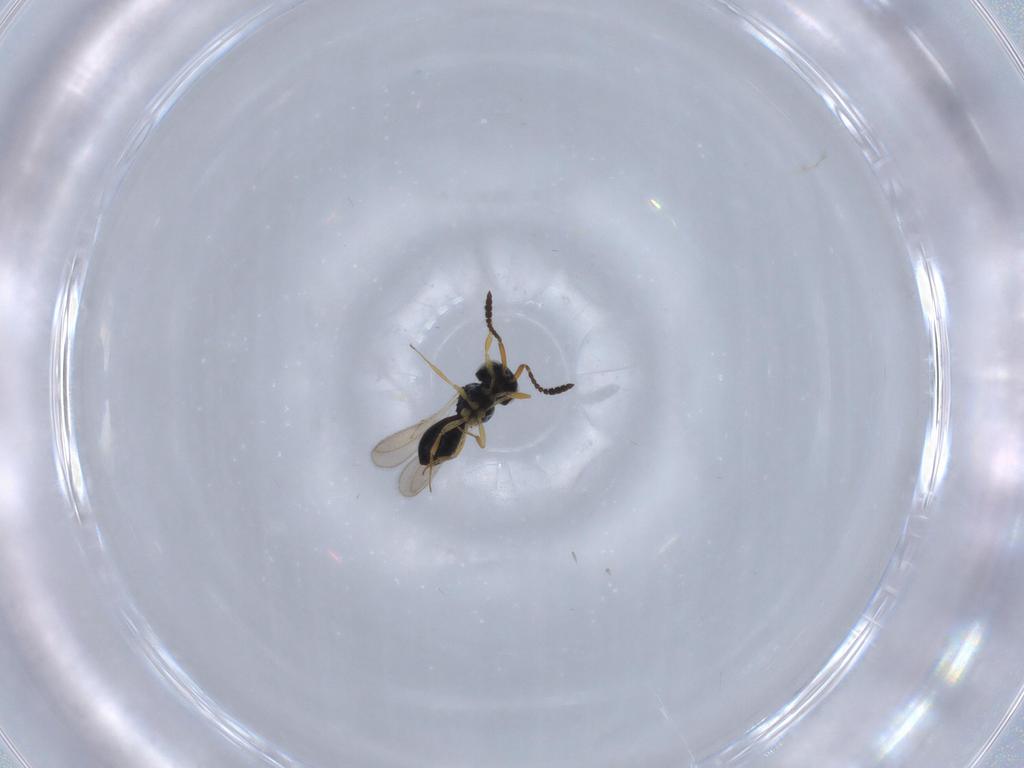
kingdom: Animalia
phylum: Arthropoda
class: Insecta
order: Hymenoptera
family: Scelionidae
